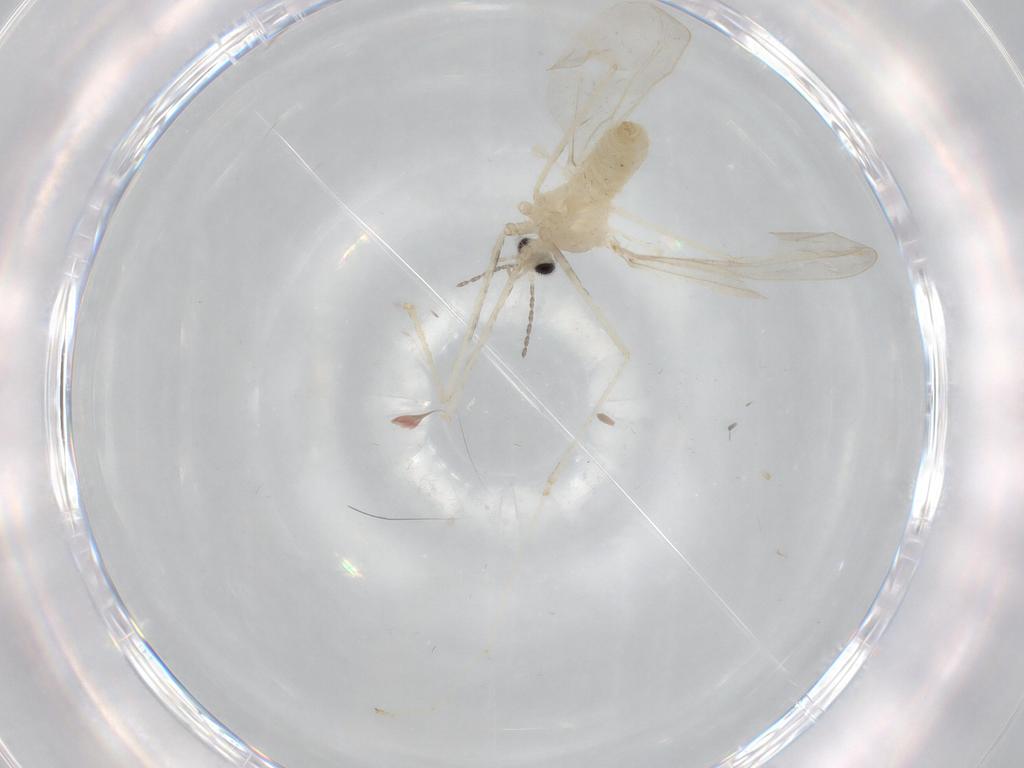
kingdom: Animalia
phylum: Arthropoda
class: Insecta
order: Diptera
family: Cecidomyiidae
